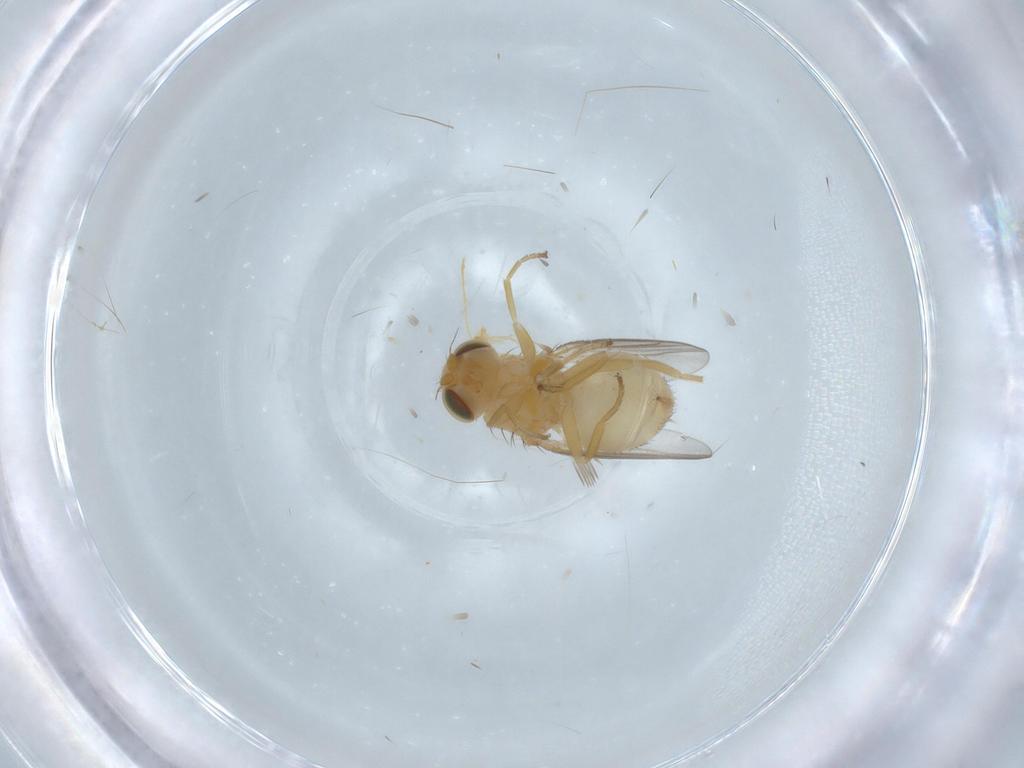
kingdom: Animalia
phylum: Arthropoda
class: Insecta
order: Diptera
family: Chloropidae
